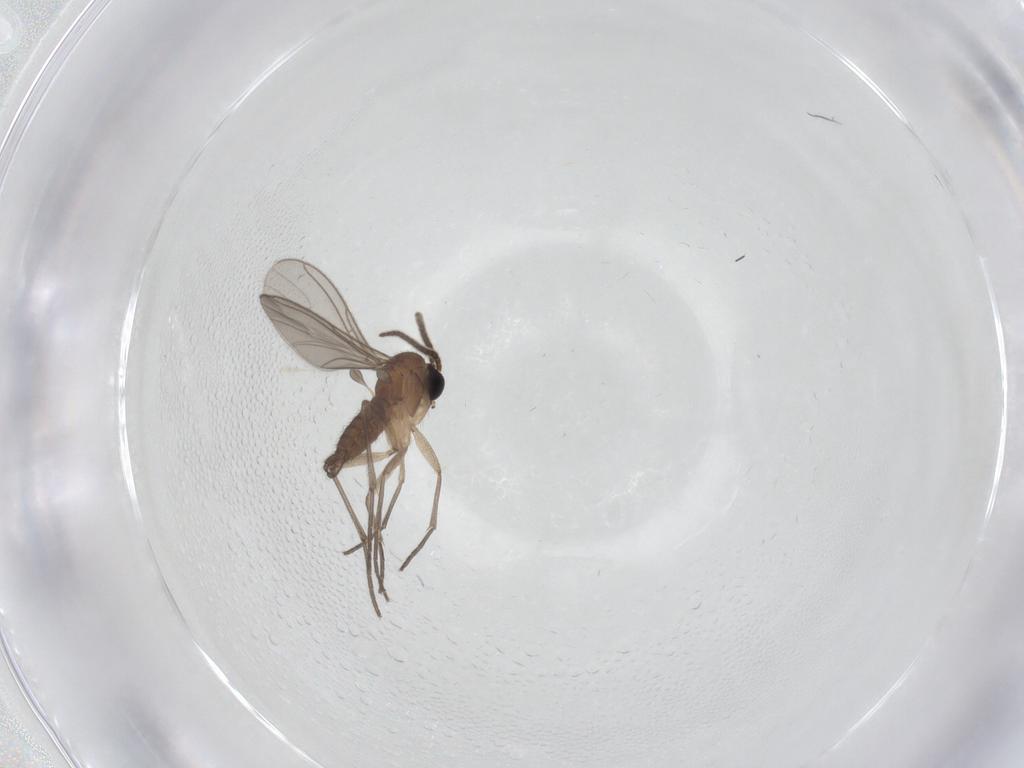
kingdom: Animalia
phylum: Arthropoda
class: Insecta
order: Diptera
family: Sciaridae
